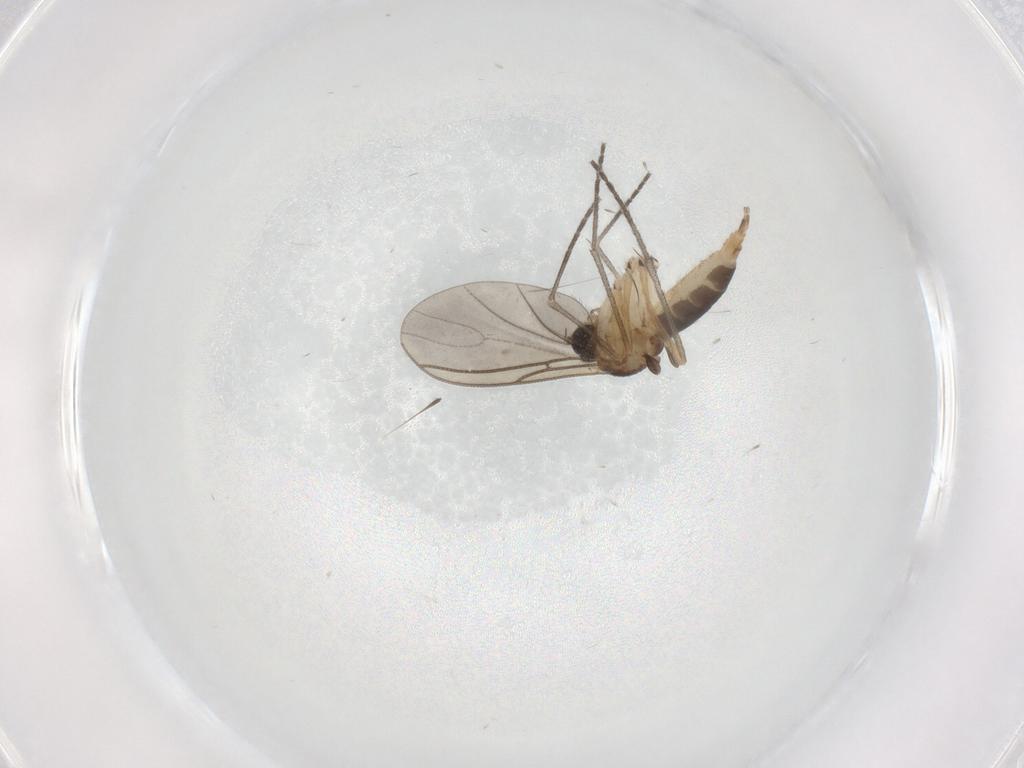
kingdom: Animalia
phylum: Arthropoda
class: Insecta
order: Diptera
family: Sciaridae
